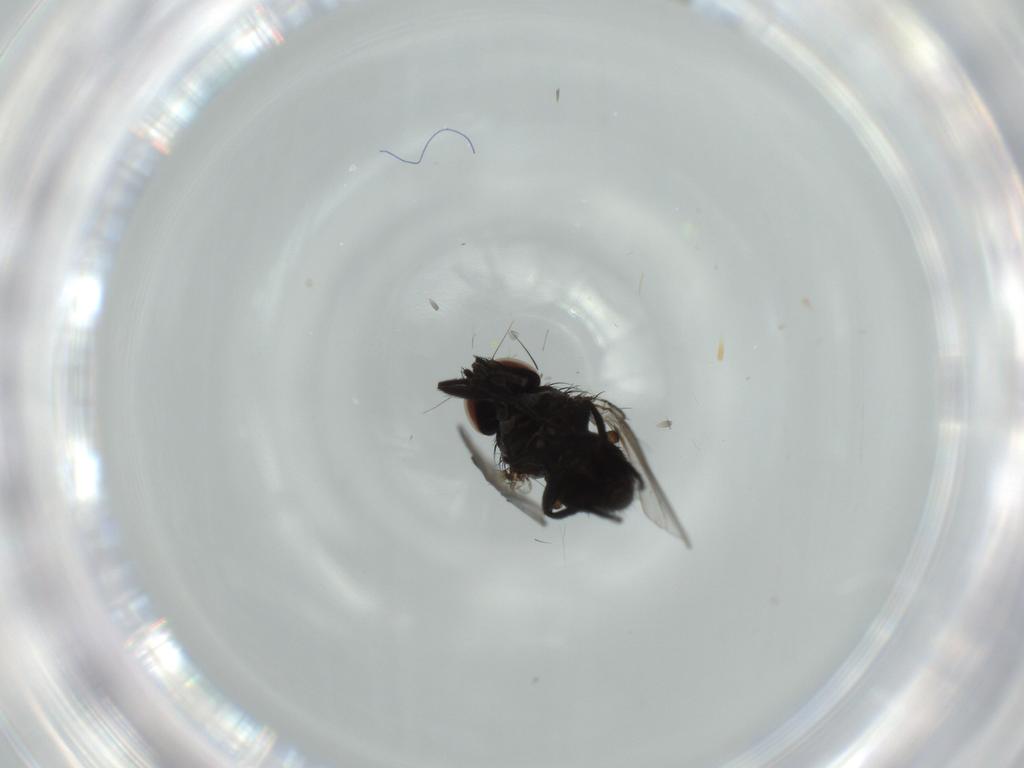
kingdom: Animalia
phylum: Arthropoda
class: Insecta
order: Diptera
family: Milichiidae
